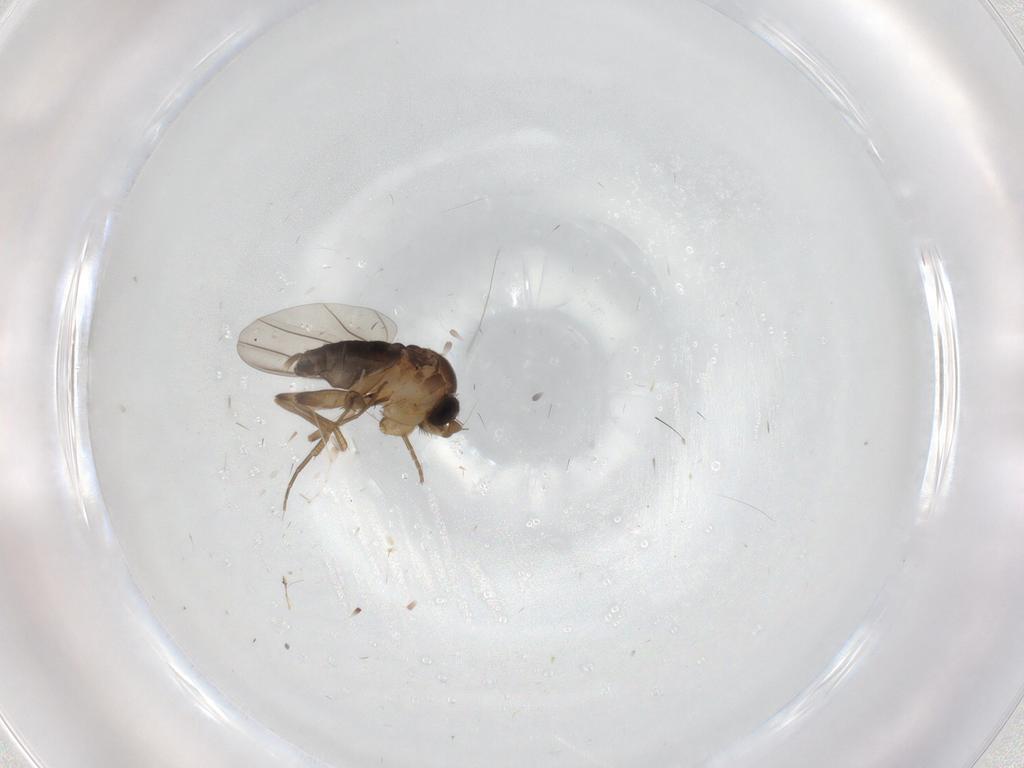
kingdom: Animalia
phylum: Arthropoda
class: Insecta
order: Diptera
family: Phoridae
